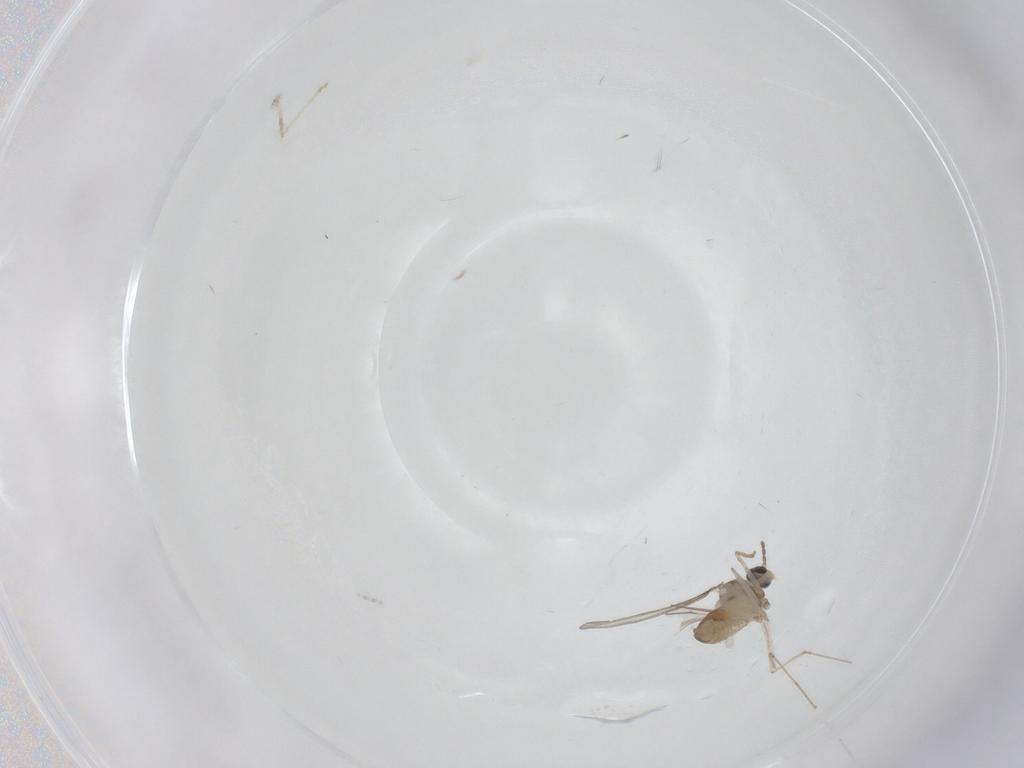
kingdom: Animalia
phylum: Arthropoda
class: Insecta
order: Diptera
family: Cecidomyiidae
